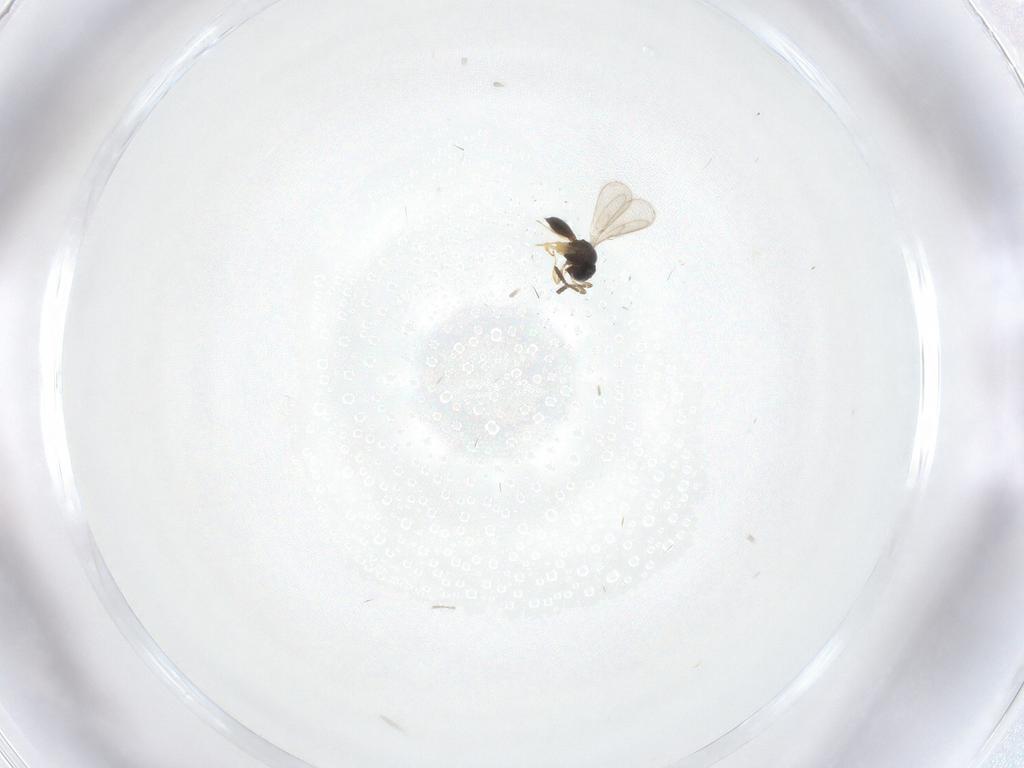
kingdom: Animalia
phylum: Arthropoda
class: Insecta
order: Hymenoptera
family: Scelionidae
